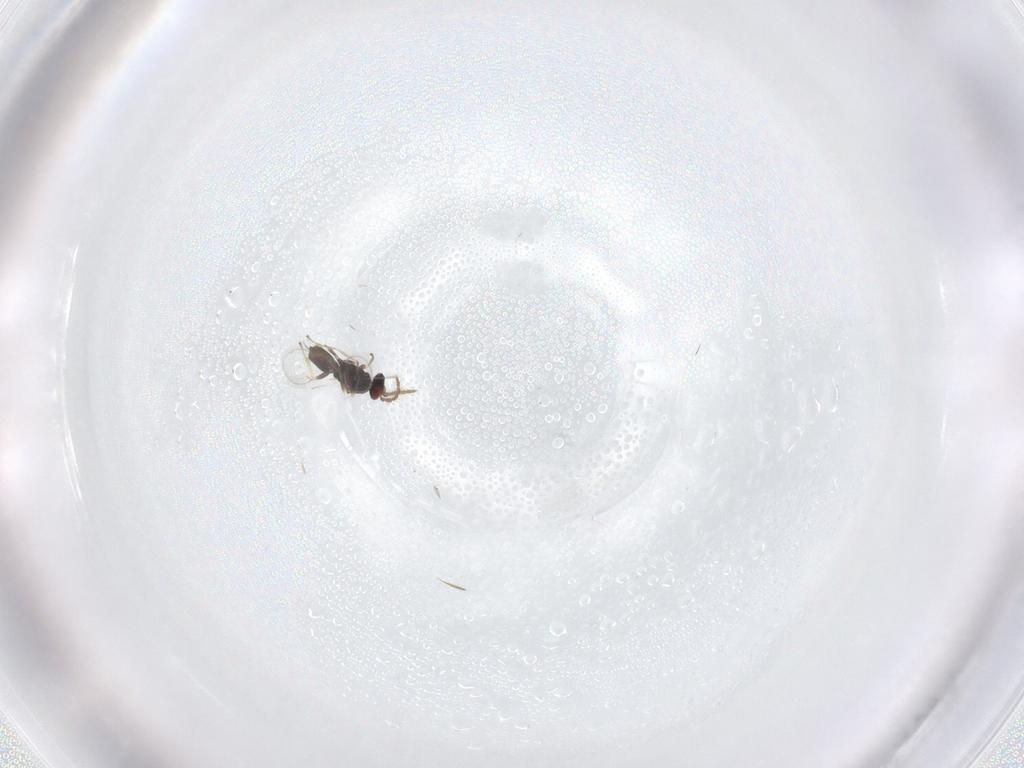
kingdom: Animalia
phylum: Arthropoda
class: Insecta
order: Hymenoptera
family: Eulophidae
